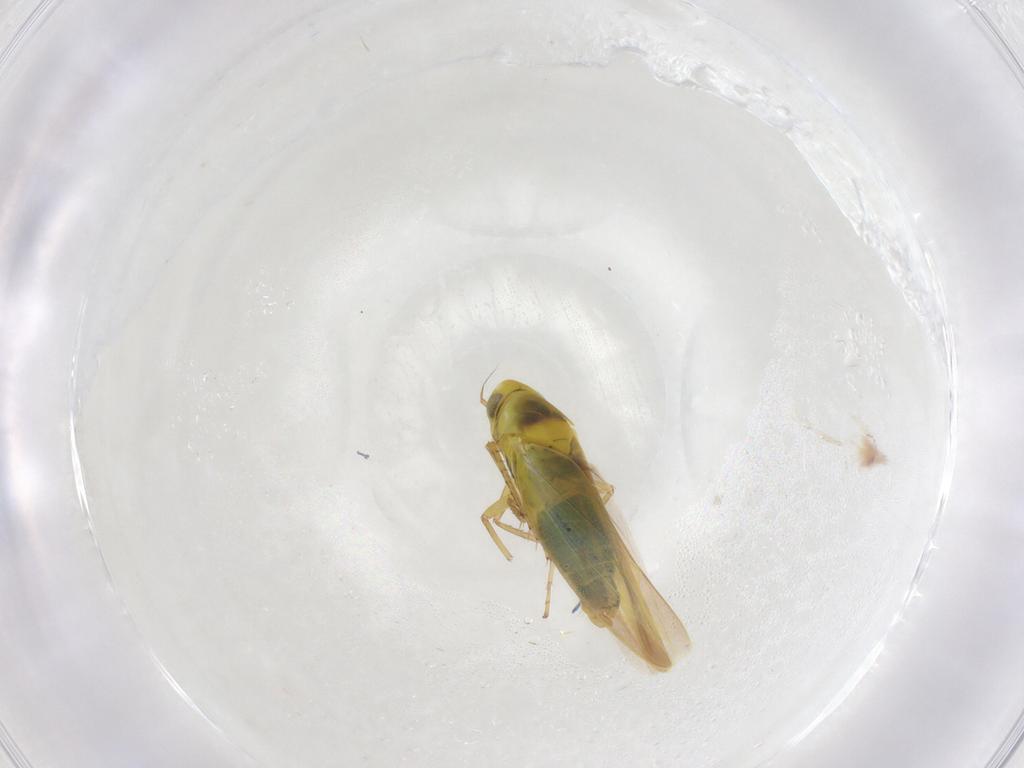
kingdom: Animalia
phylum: Arthropoda
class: Insecta
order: Hemiptera
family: Cicadellidae
